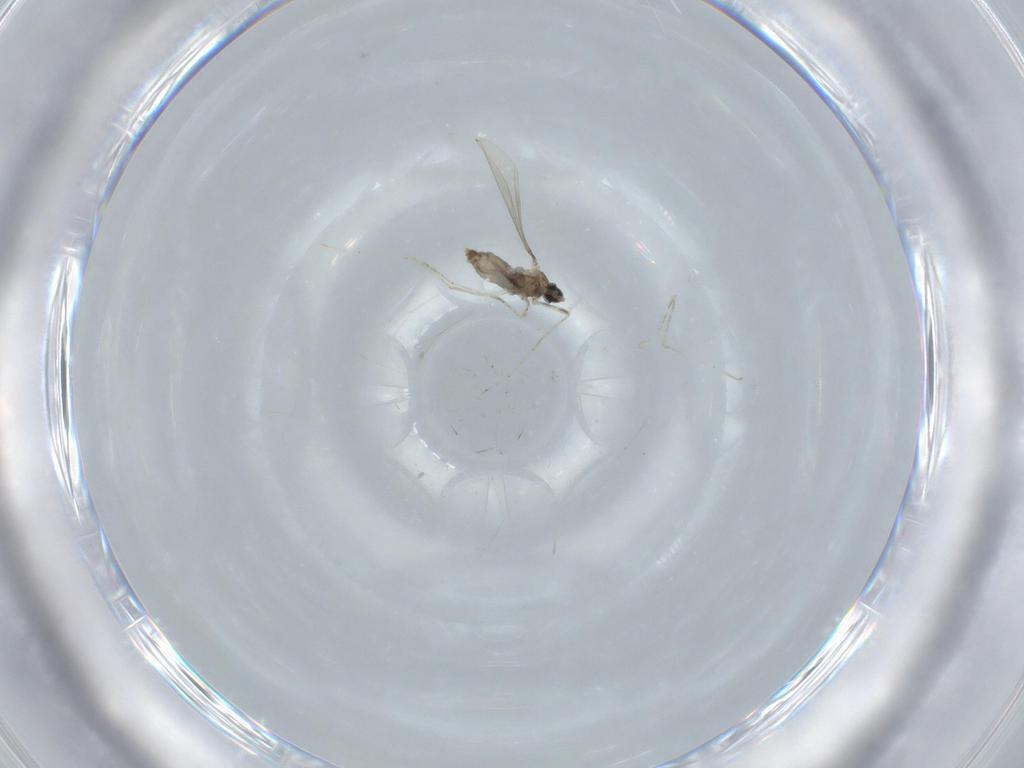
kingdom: Animalia
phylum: Arthropoda
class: Insecta
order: Diptera
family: Cecidomyiidae
